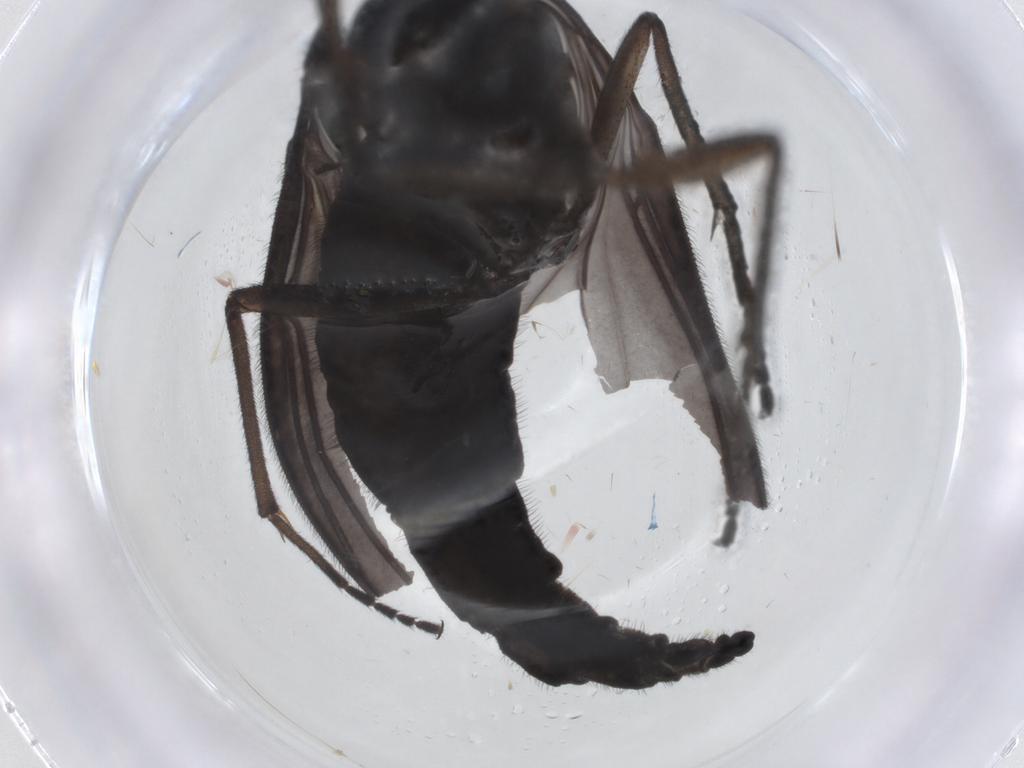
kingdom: Animalia
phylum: Arthropoda
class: Insecta
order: Diptera
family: Sciaridae
